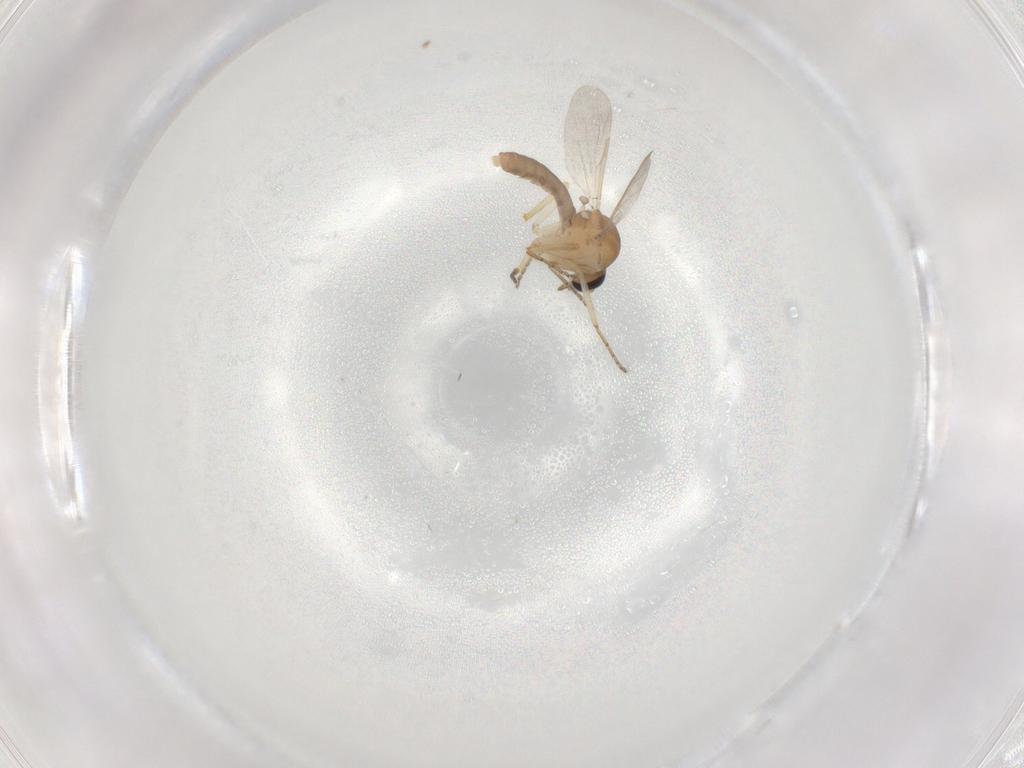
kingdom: Animalia
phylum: Arthropoda
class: Insecta
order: Diptera
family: Ceratopogonidae
